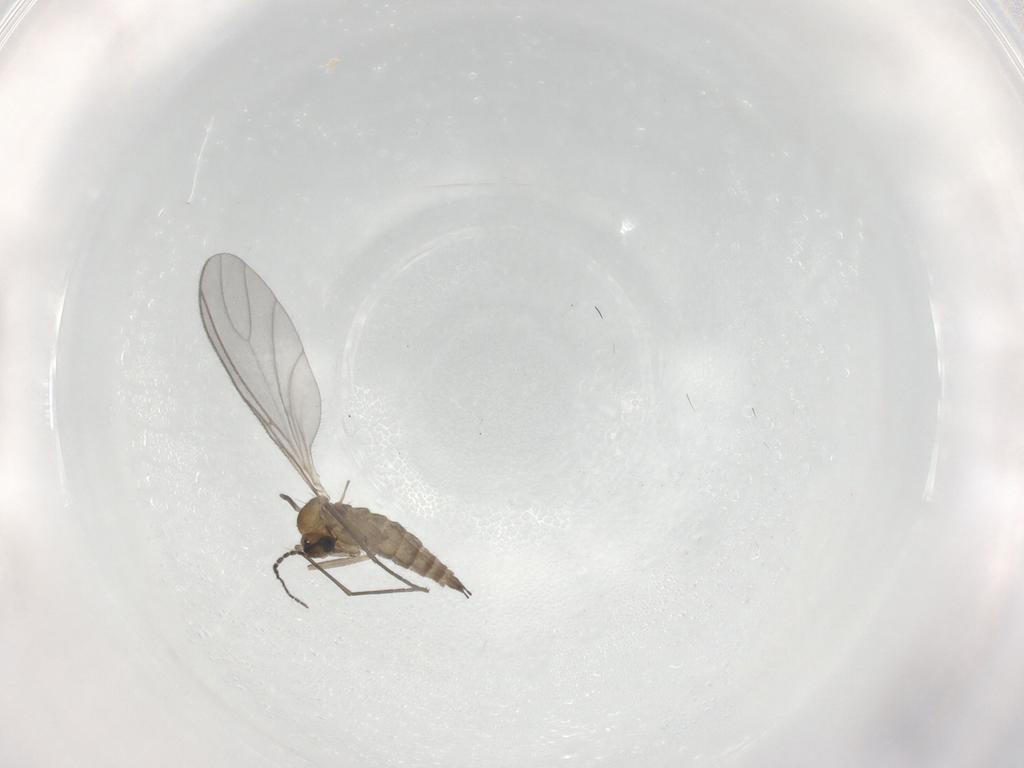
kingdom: Animalia
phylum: Arthropoda
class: Insecta
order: Diptera
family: Sciaridae
